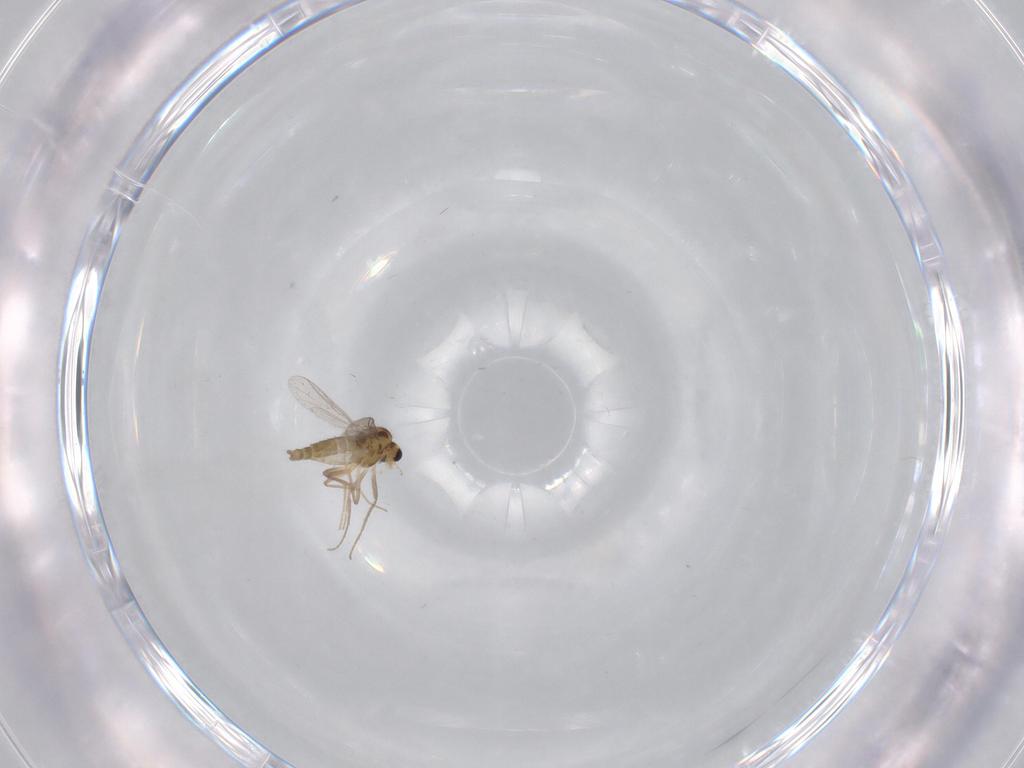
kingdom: Animalia
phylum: Arthropoda
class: Insecta
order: Diptera
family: Chironomidae
